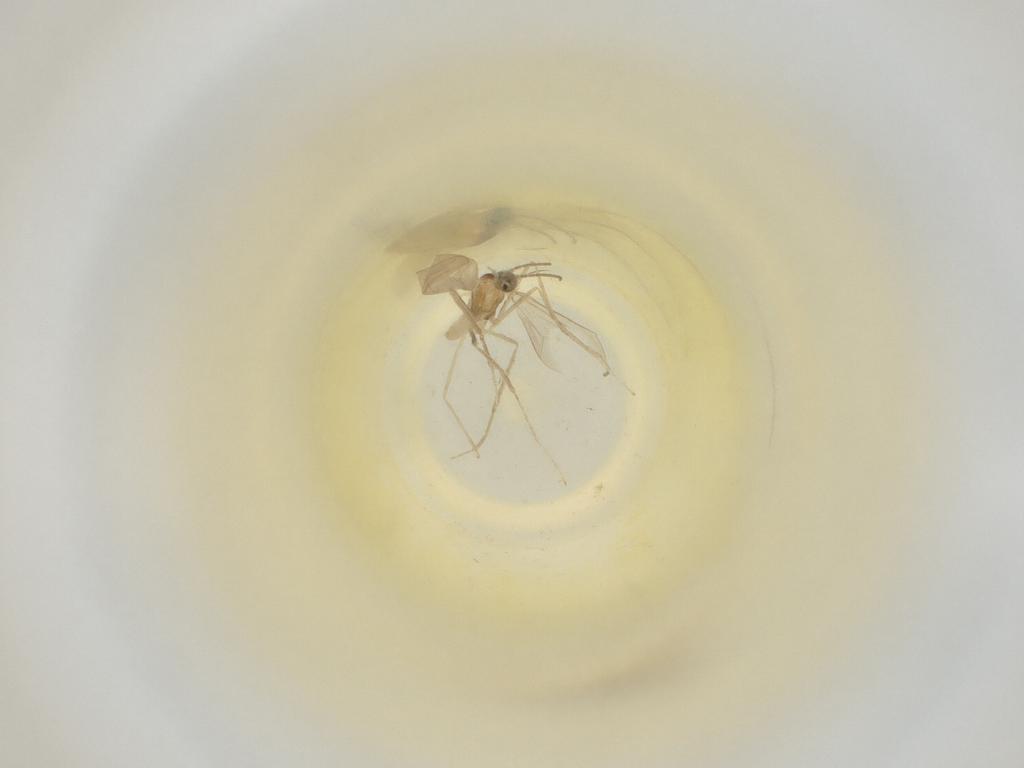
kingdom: Animalia
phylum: Arthropoda
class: Insecta
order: Diptera
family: Cecidomyiidae
